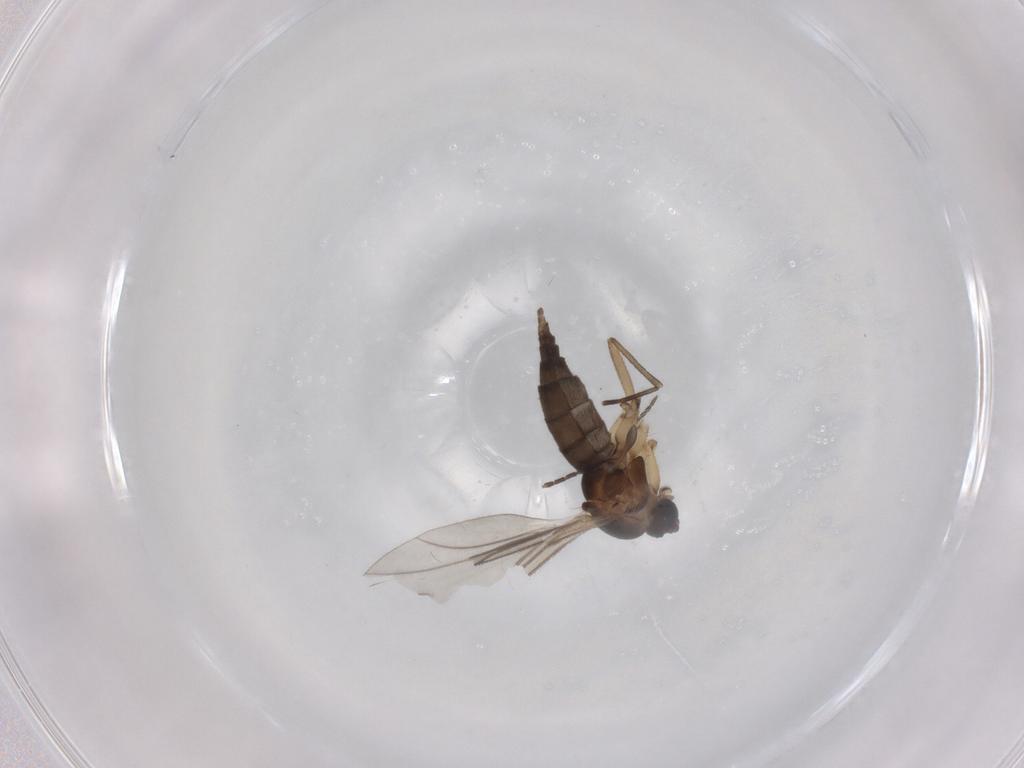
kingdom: Animalia
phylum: Arthropoda
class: Insecta
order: Diptera
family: Sciaridae
